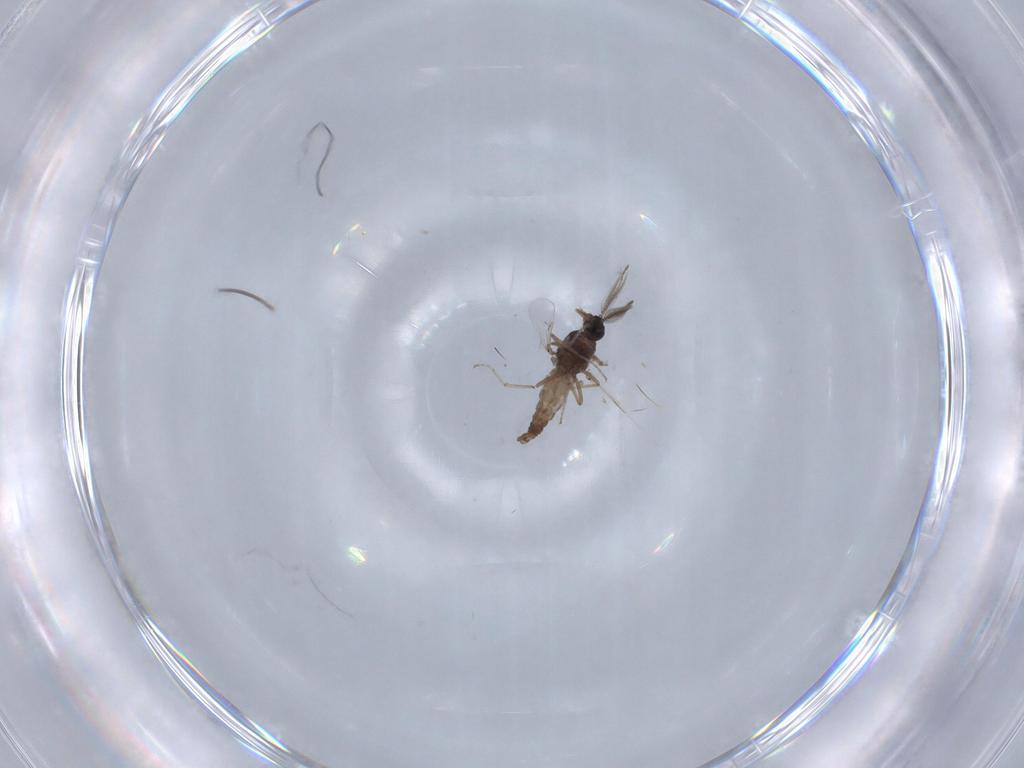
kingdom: Animalia
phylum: Arthropoda
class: Insecta
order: Diptera
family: Ceratopogonidae
